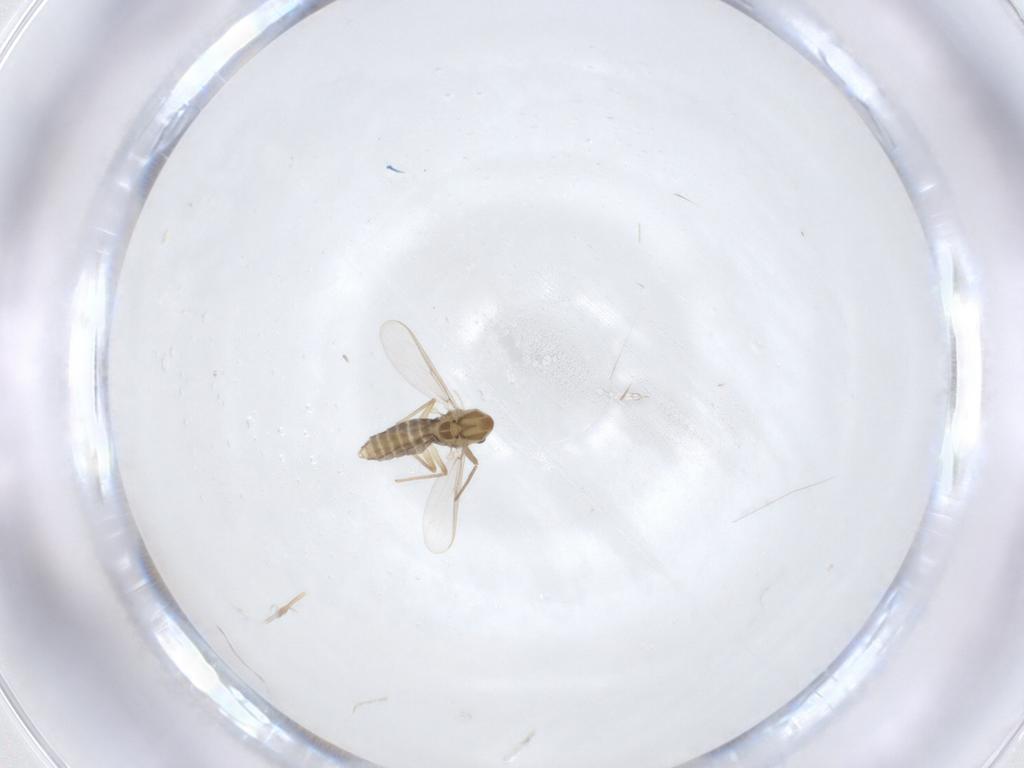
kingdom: Animalia
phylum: Arthropoda
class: Insecta
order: Diptera
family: Chironomidae
